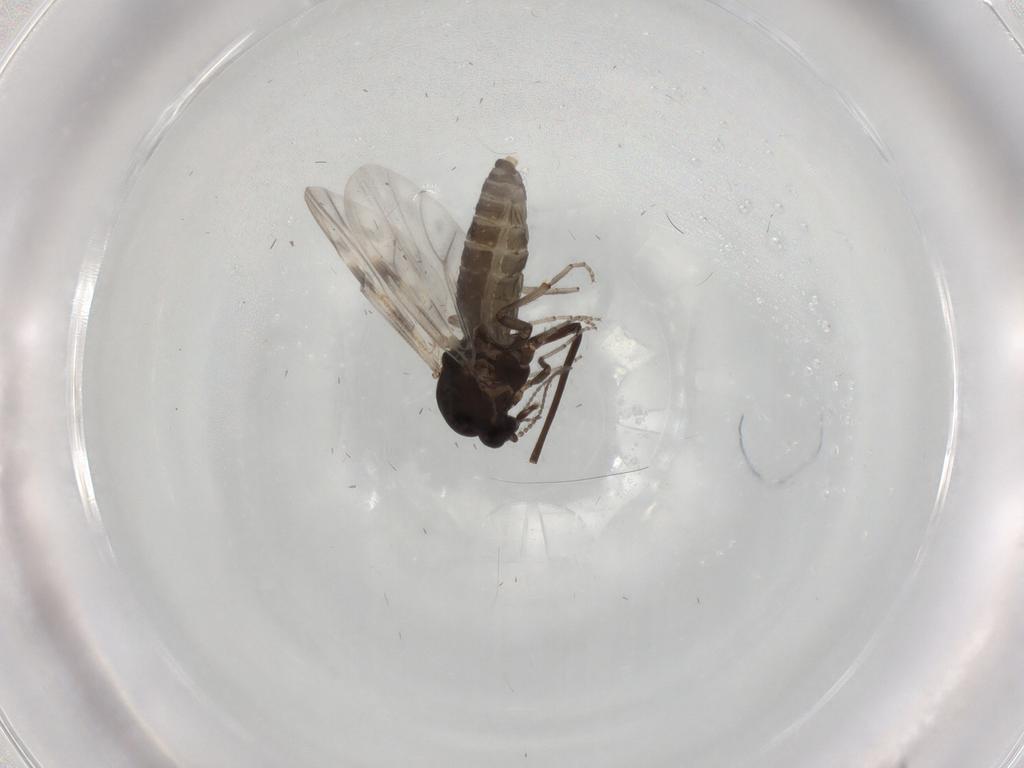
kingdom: Animalia
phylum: Arthropoda
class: Insecta
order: Diptera
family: Chironomidae
